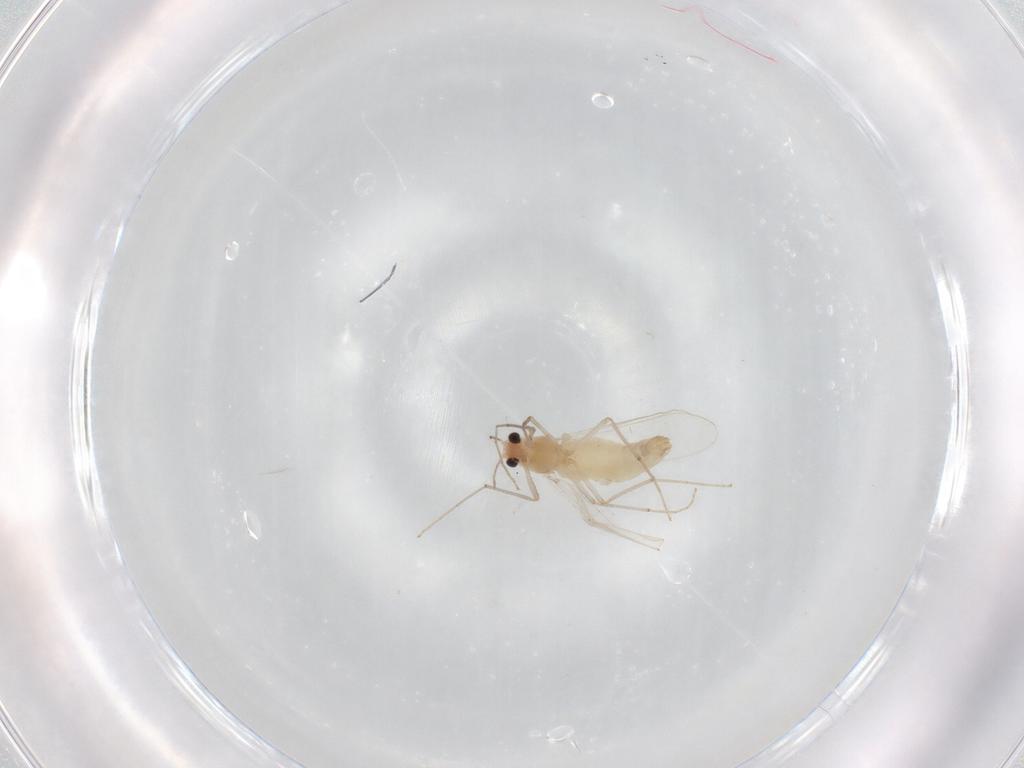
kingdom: Animalia
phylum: Arthropoda
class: Insecta
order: Diptera
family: Chironomidae
